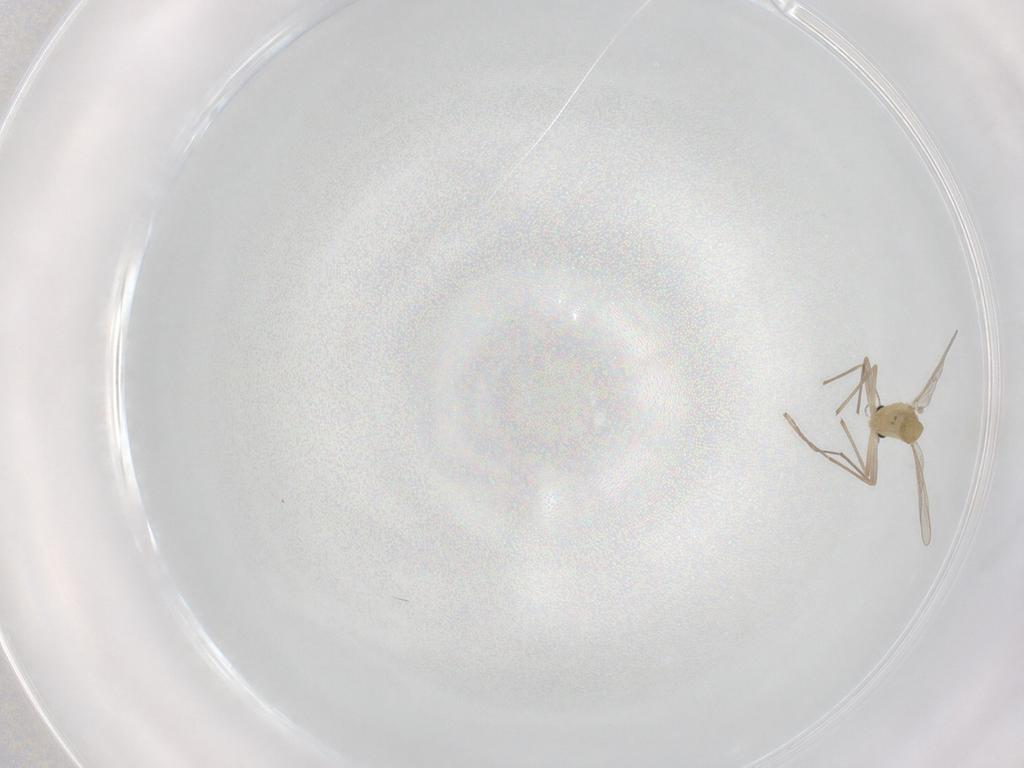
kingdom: Animalia
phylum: Arthropoda
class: Insecta
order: Diptera
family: Chironomidae
